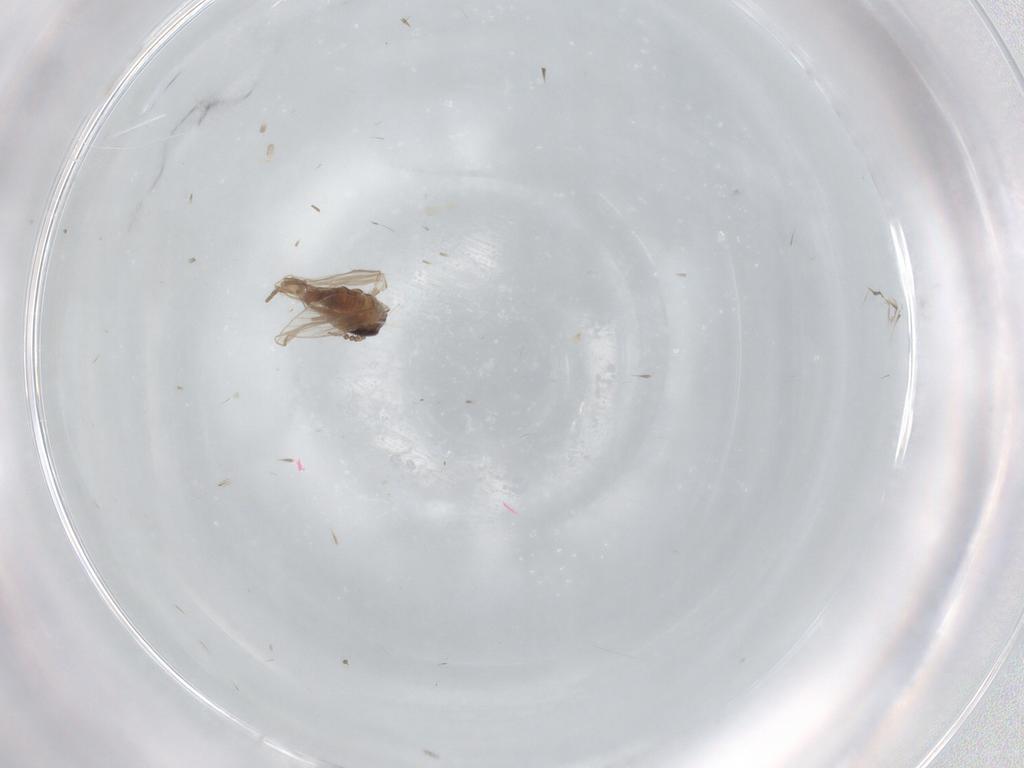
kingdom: Animalia
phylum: Arthropoda
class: Insecta
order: Diptera
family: Psychodidae
